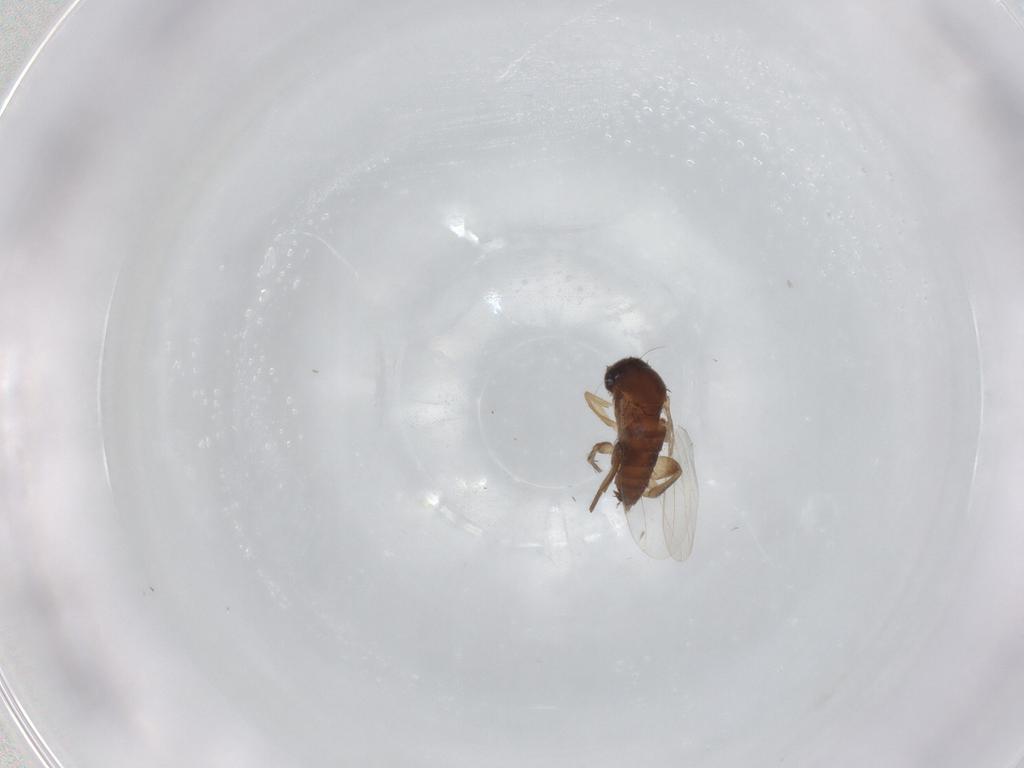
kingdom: Animalia
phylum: Arthropoda
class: Insecta
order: Diptera
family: Phoridae
